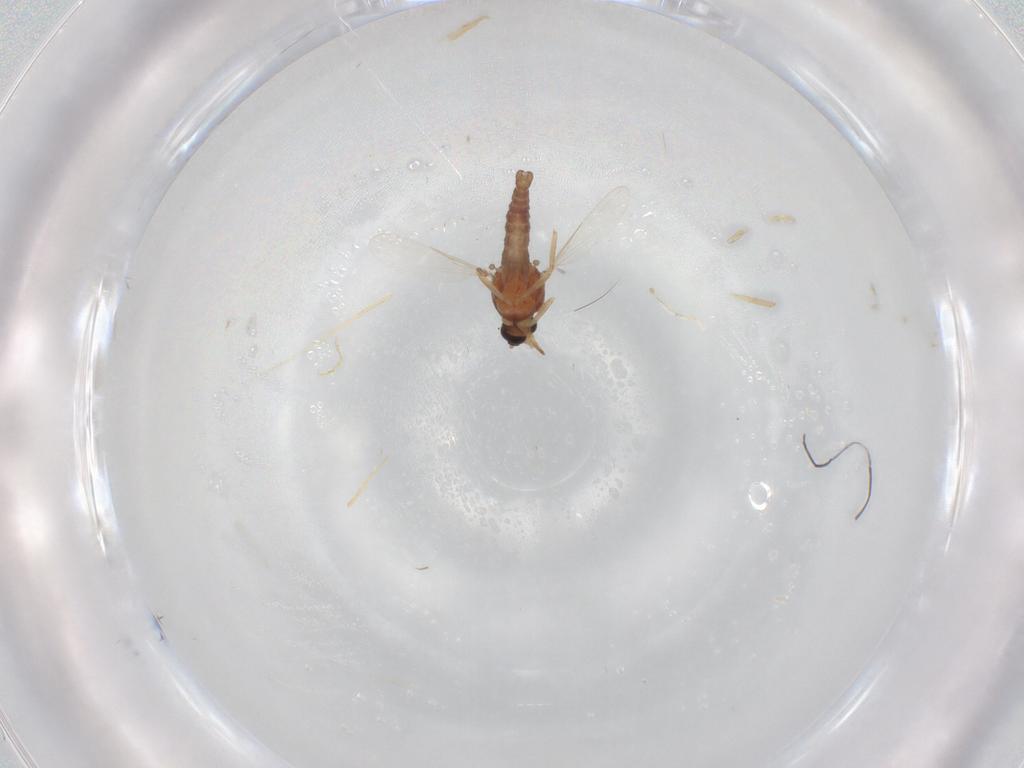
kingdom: Animalia
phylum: Arthropoda
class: Insecta
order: Diptera
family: Ceratopogonidae
